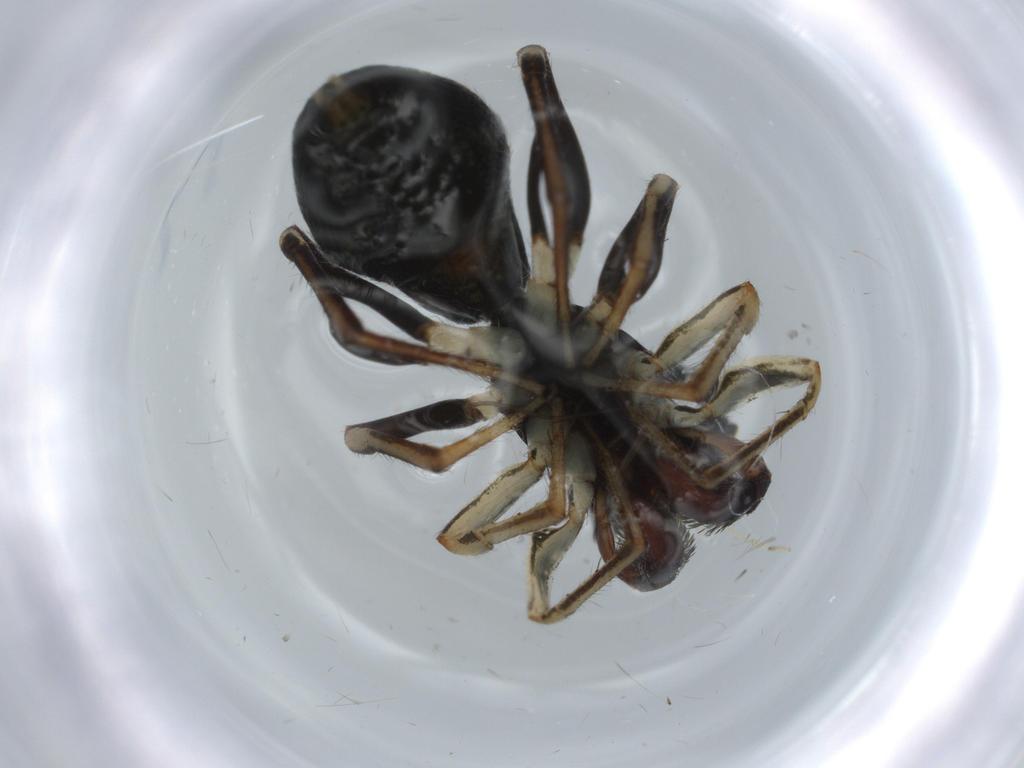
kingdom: Animalia
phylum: Arthropoda
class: Arachnida
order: Araneae
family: Salticidae
